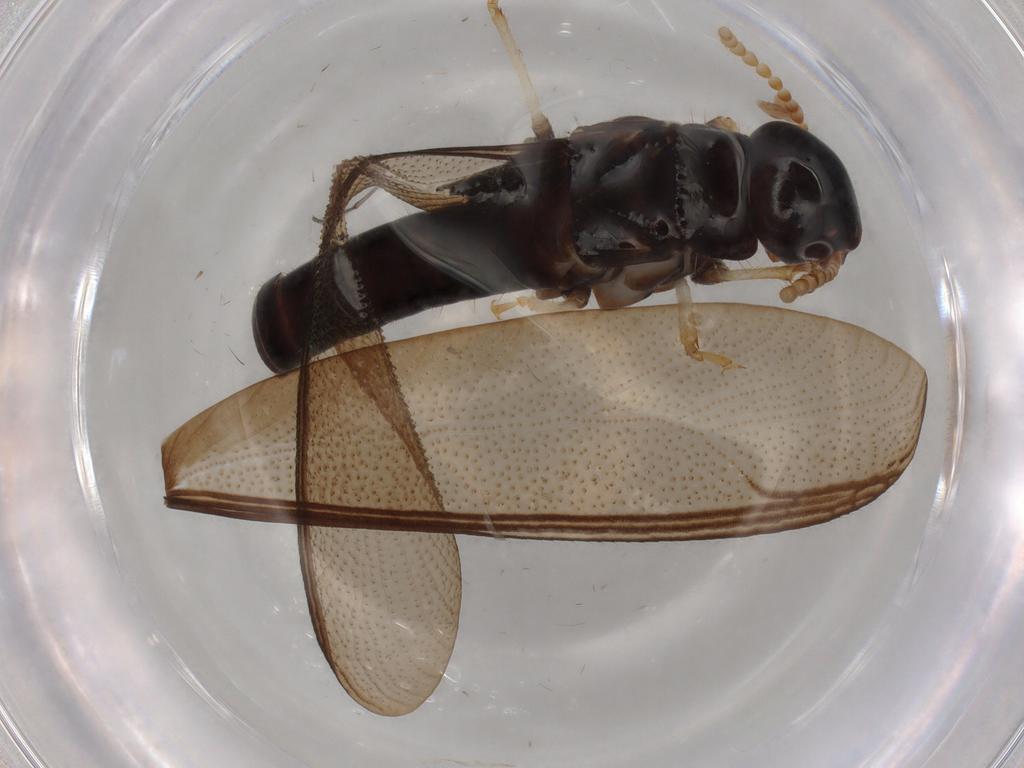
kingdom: Animalia
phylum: Arthropoda
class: Insecta
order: Blattodea
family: Kalotermitidae
